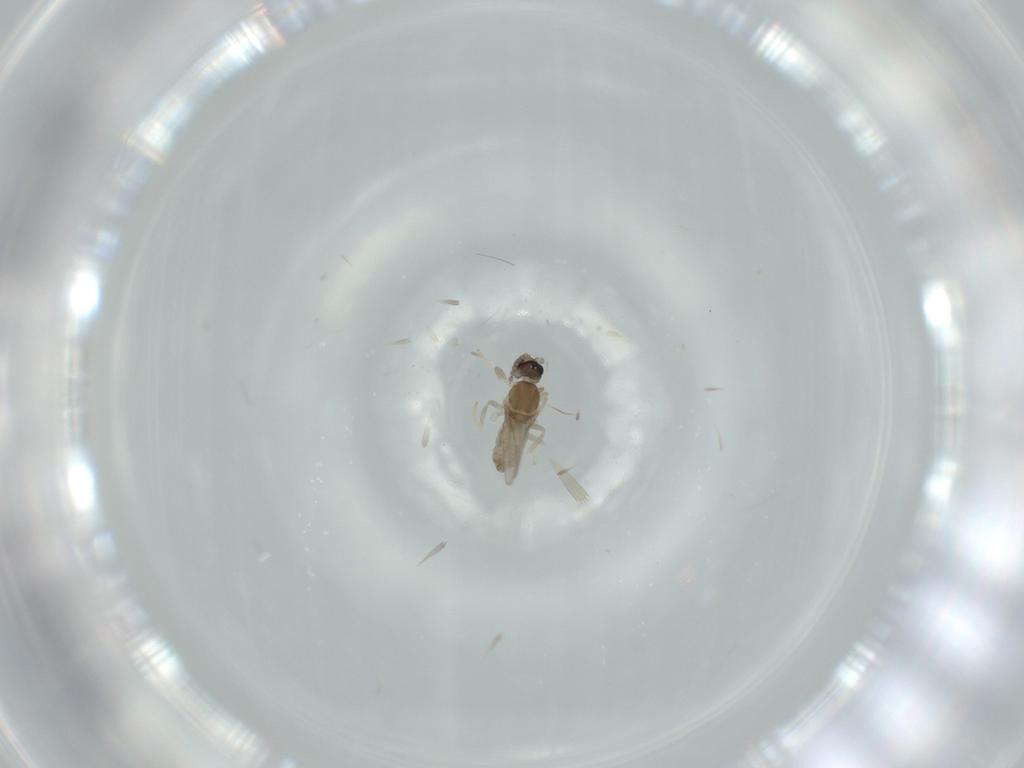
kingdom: Animalia
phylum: Arthropoda
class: Insecta
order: Diptera
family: Cecidomyiidae
